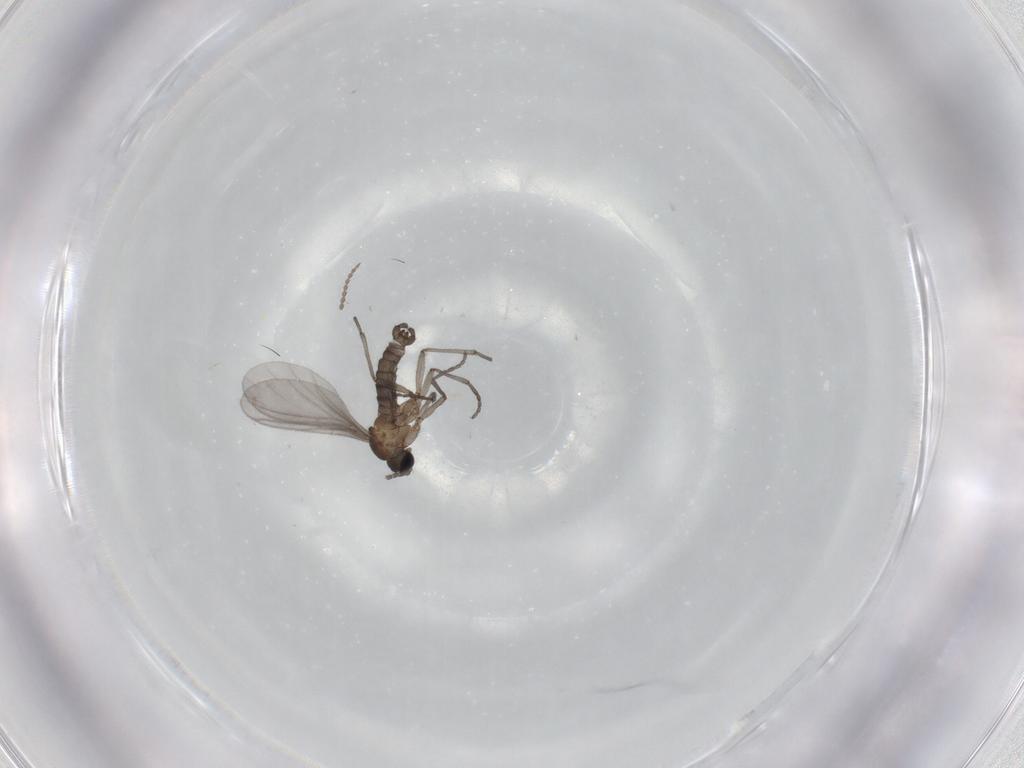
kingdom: Animalia
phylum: Arthropoda
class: Insecta
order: Diptera
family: Sciaridae
